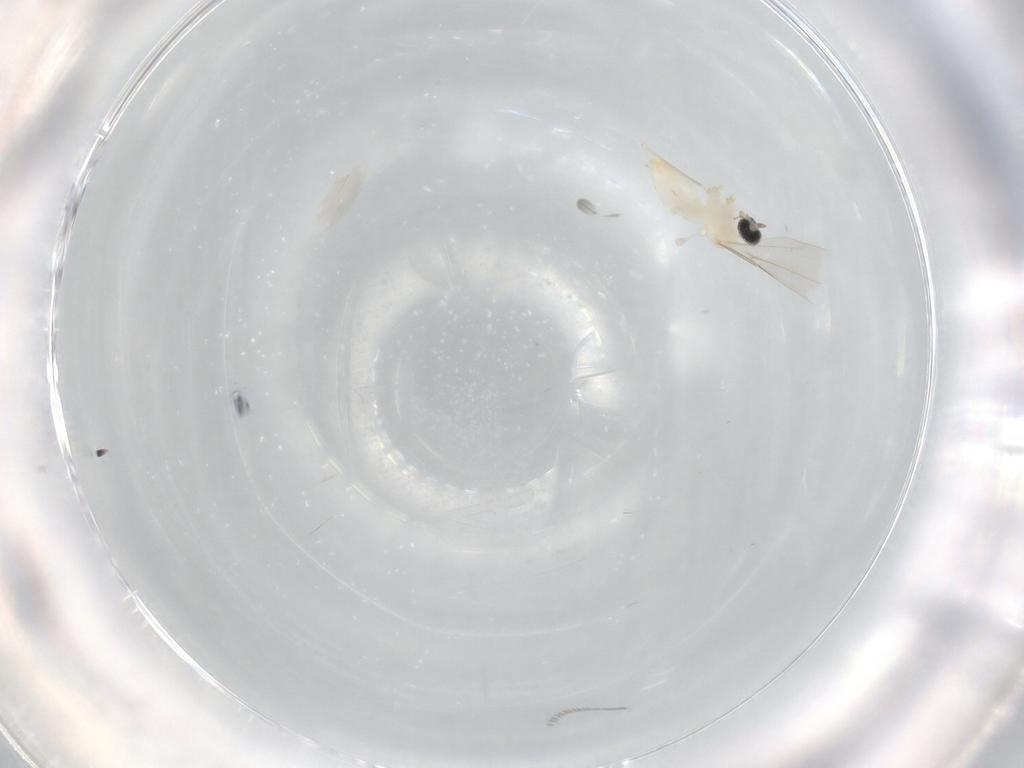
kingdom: Animalia
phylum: Arthropoda
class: Insecta
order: Diptera
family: Cecidomyiidae
